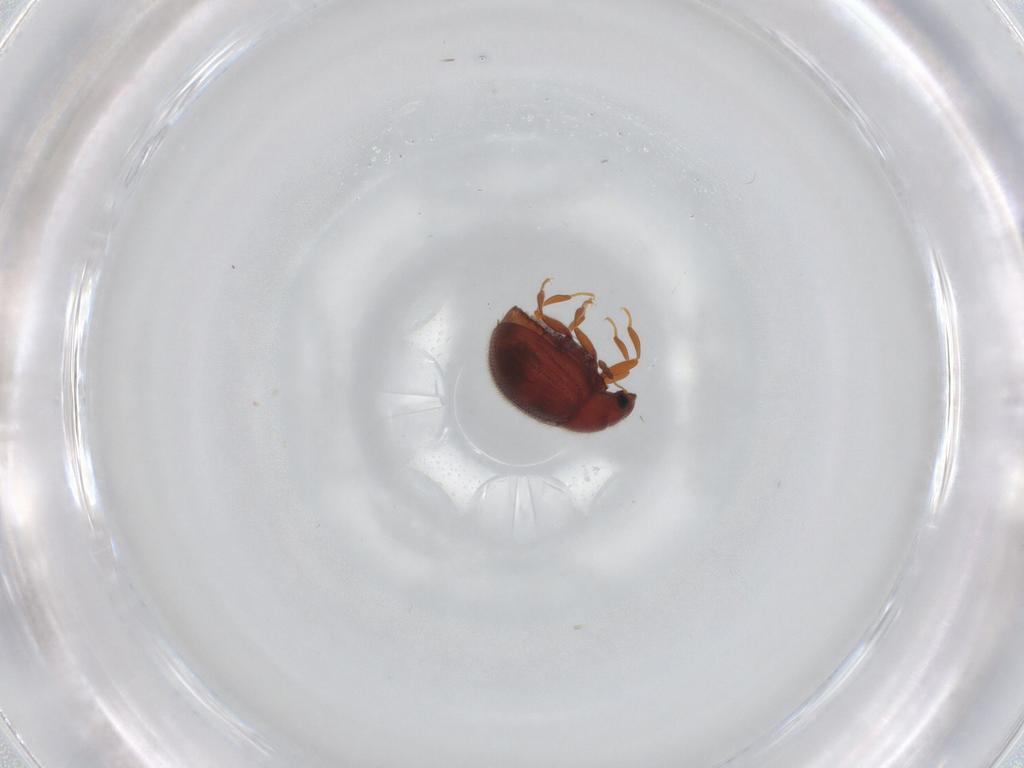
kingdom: Animalia
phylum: Arthropoda
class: Insecta
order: Coleoptera
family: Sphindidae
